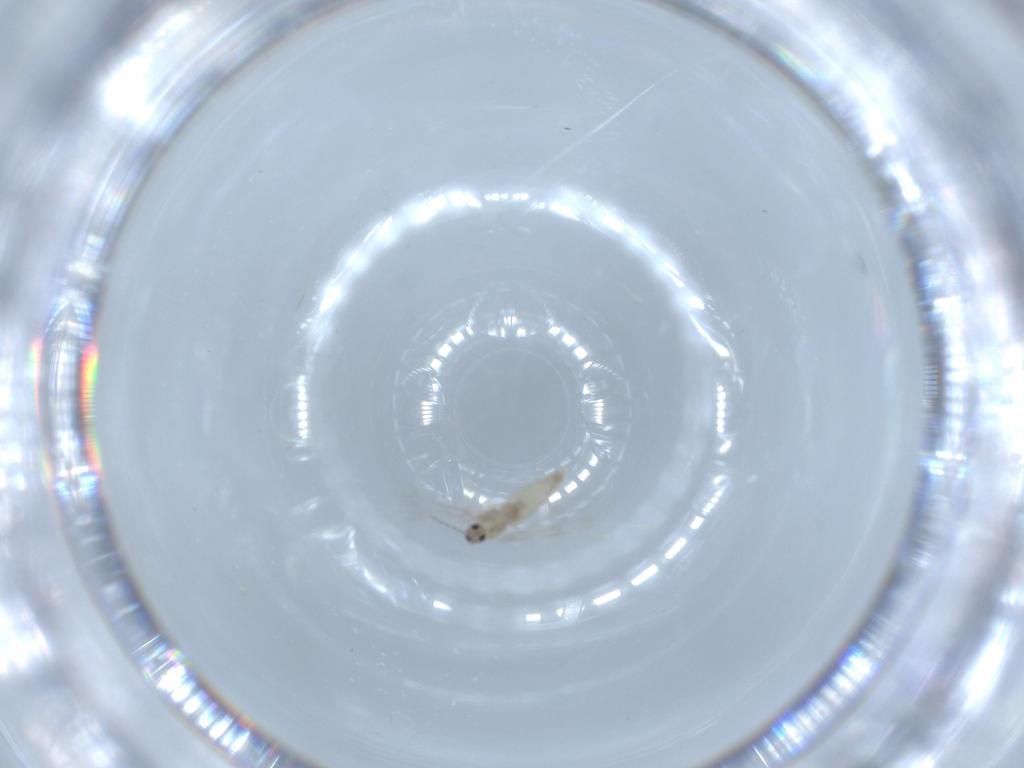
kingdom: Animalia
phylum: Arthropoda
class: Insecta
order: Diptera
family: Cecidomyiidae
